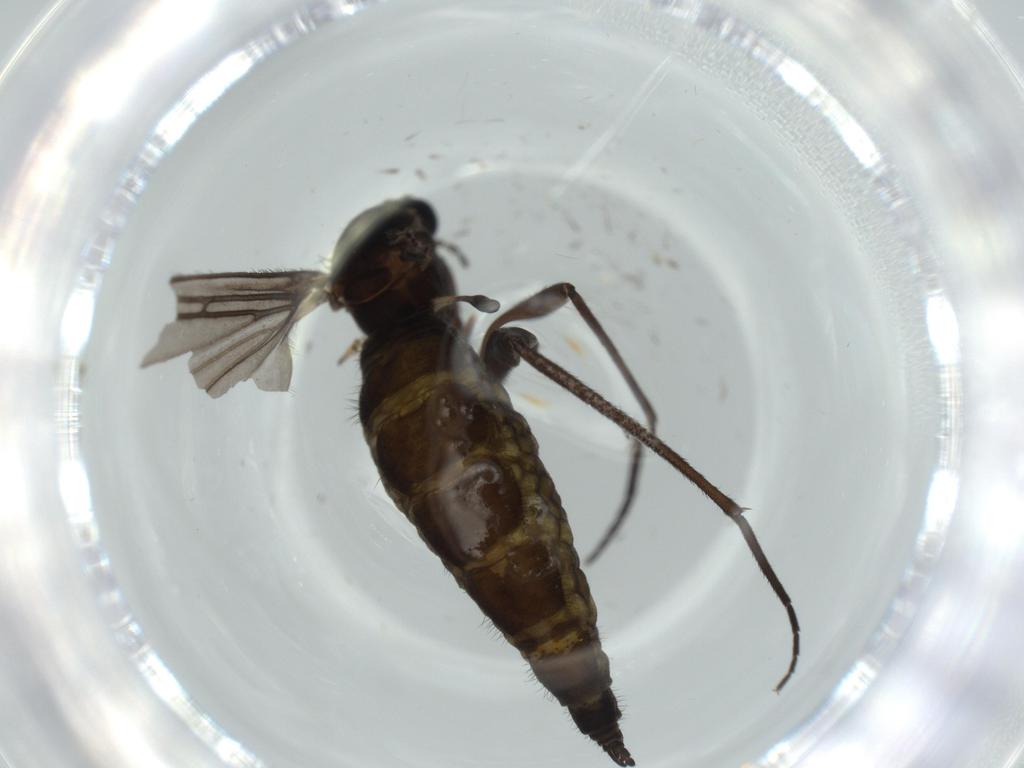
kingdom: Animalia
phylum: Arthropoda
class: Insecta
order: Diptera
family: Sciaridae
